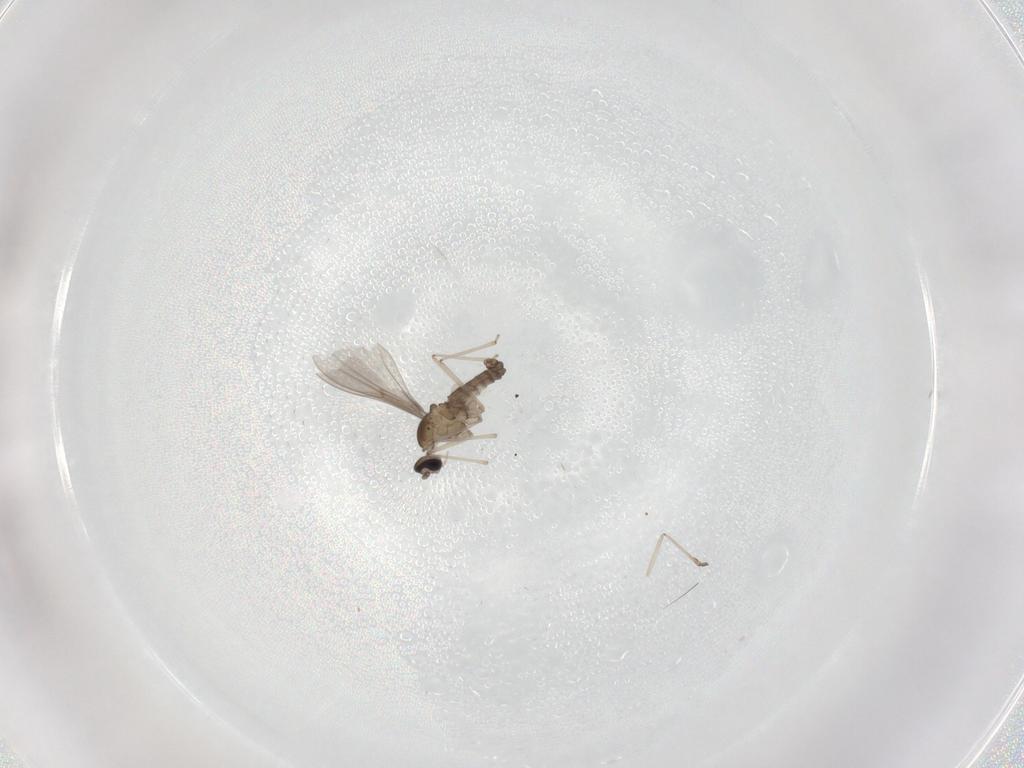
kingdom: Animalia
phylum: Arthropoda
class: Insecta
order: Diptera
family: Cecidomyiidae
